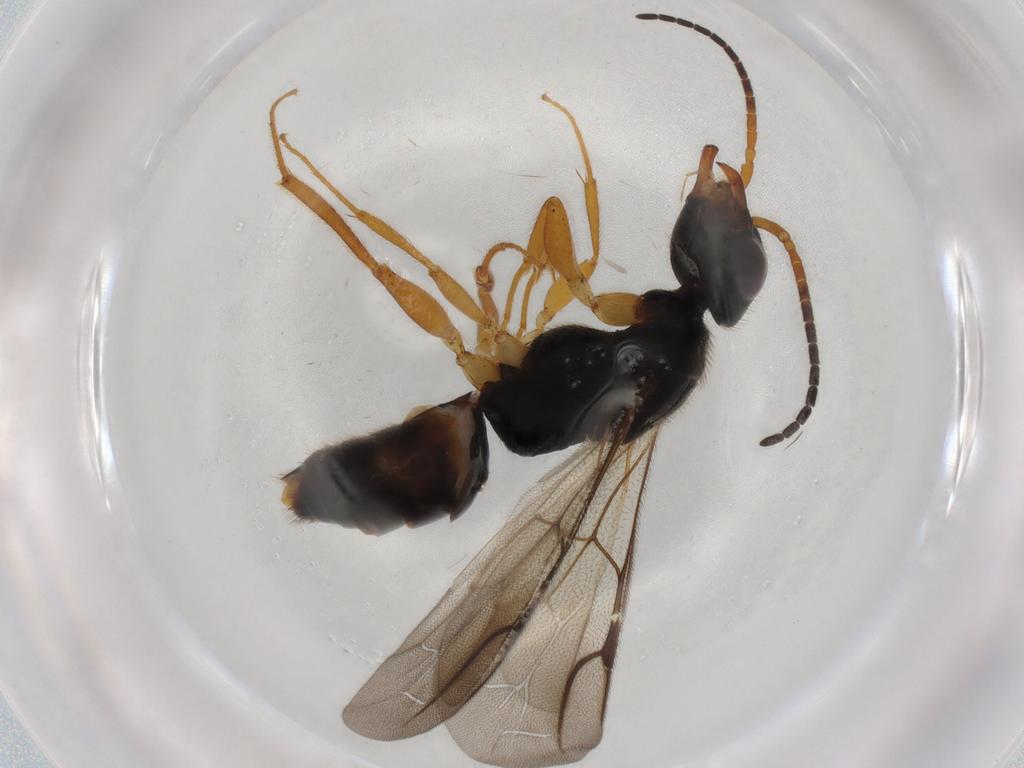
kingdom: Animalia
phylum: Arthropoda
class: Insecta
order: Hymenoptera
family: Bethylidae
